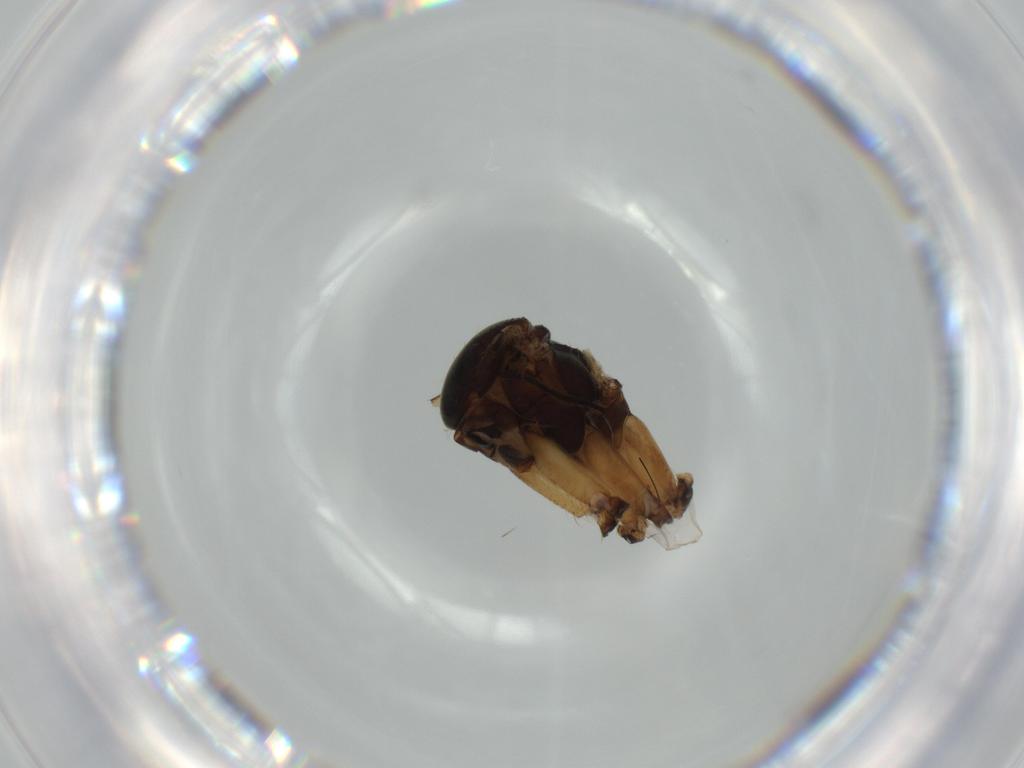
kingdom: Animalia
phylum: Arthropoda
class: Insecta
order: Diptera
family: Mycetophilidae
